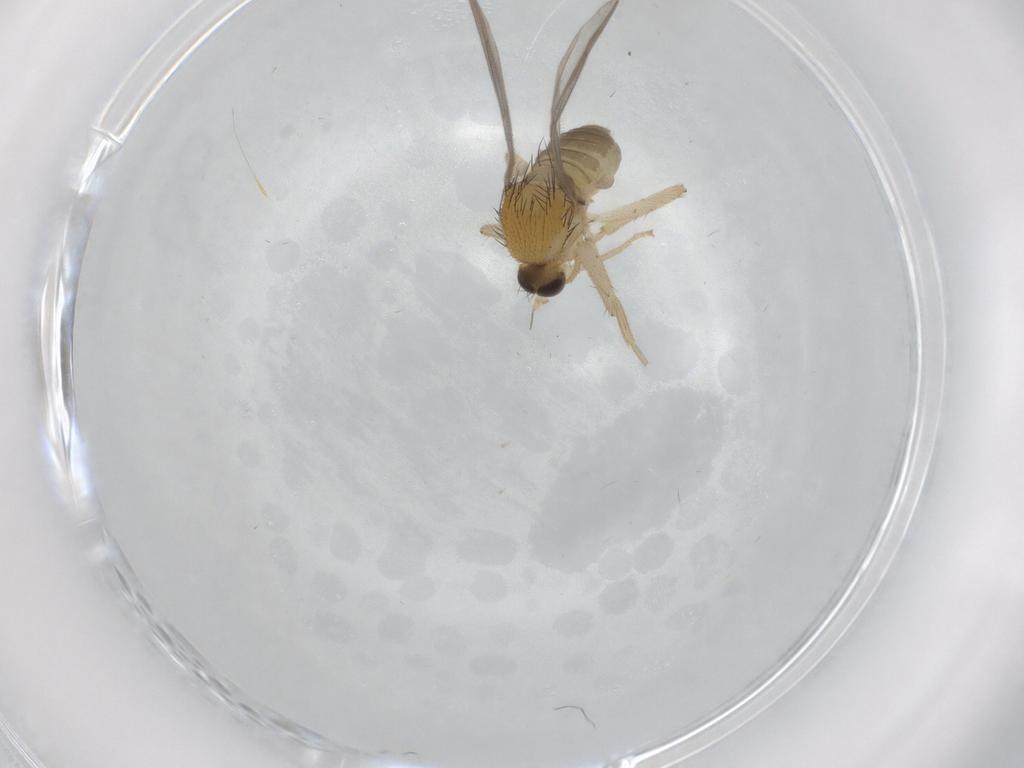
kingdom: Animalia
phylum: Arthropoda
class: Insecta
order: Diptera
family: Hybotidae
